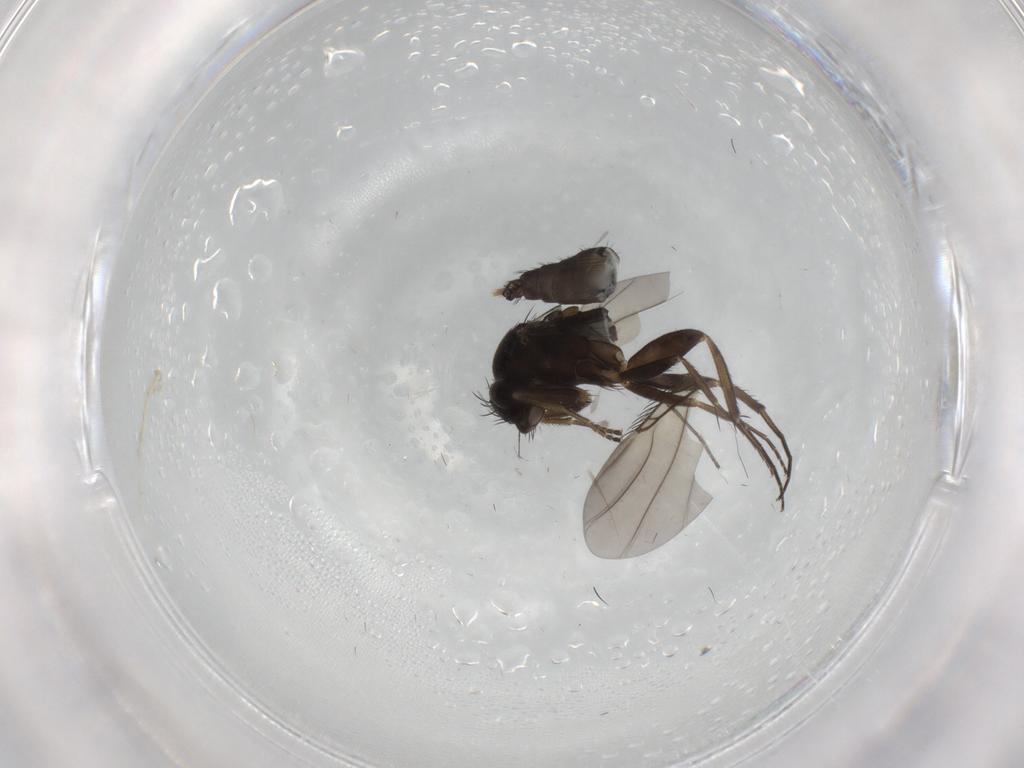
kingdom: Animalia
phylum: Arthropoda
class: Insecta
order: Diptera
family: Phoridae
